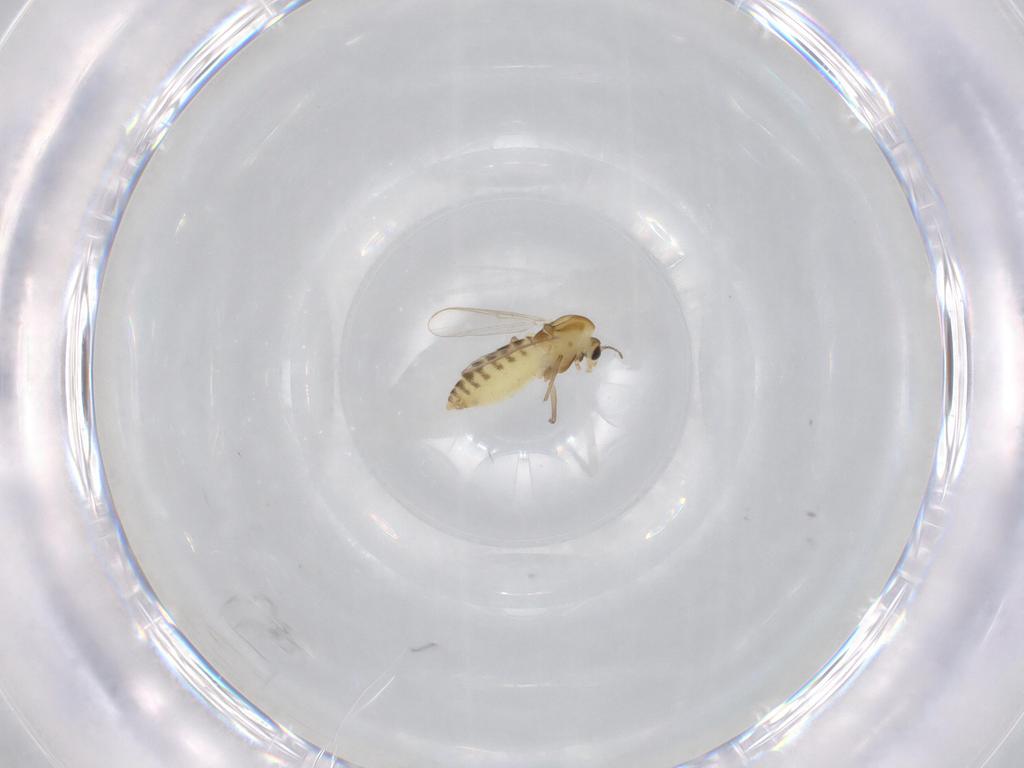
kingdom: Animalia
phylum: Arthropoda
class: Insecta
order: Diptera
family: Chironomidae
